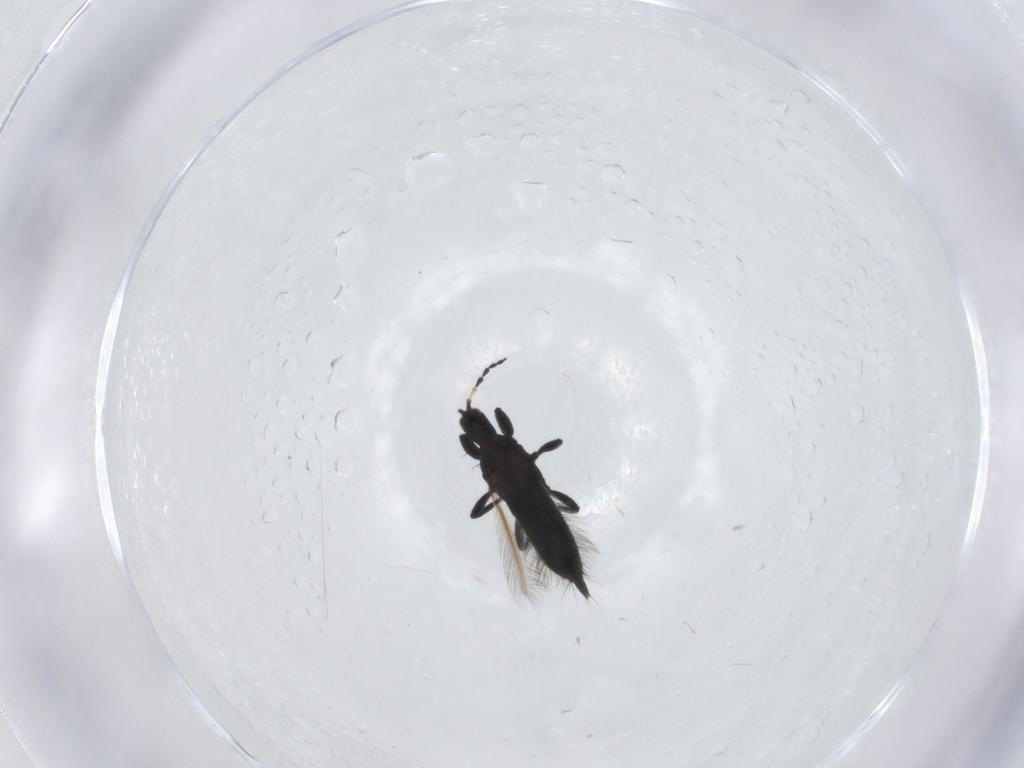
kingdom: Animalia
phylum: Arthropoda
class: Insecta
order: Thysanoptera
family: Phlaeothripidae
